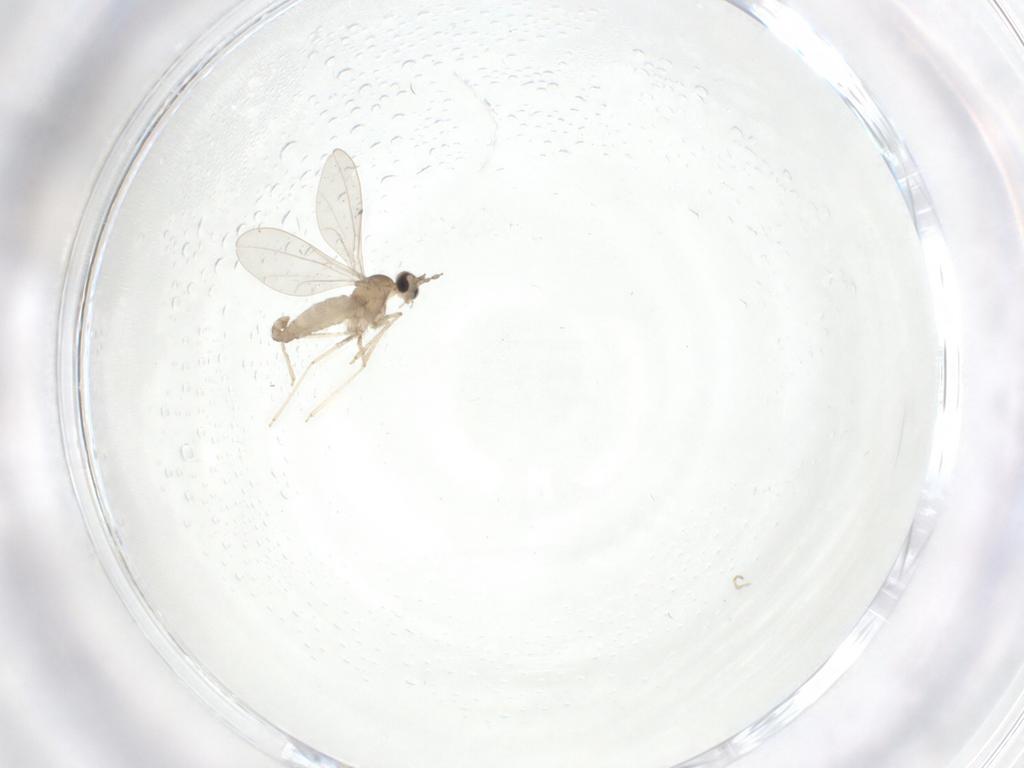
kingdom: Animalia
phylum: Arthropoda
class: Insecta
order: Diptera
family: Cecidomyiidae
